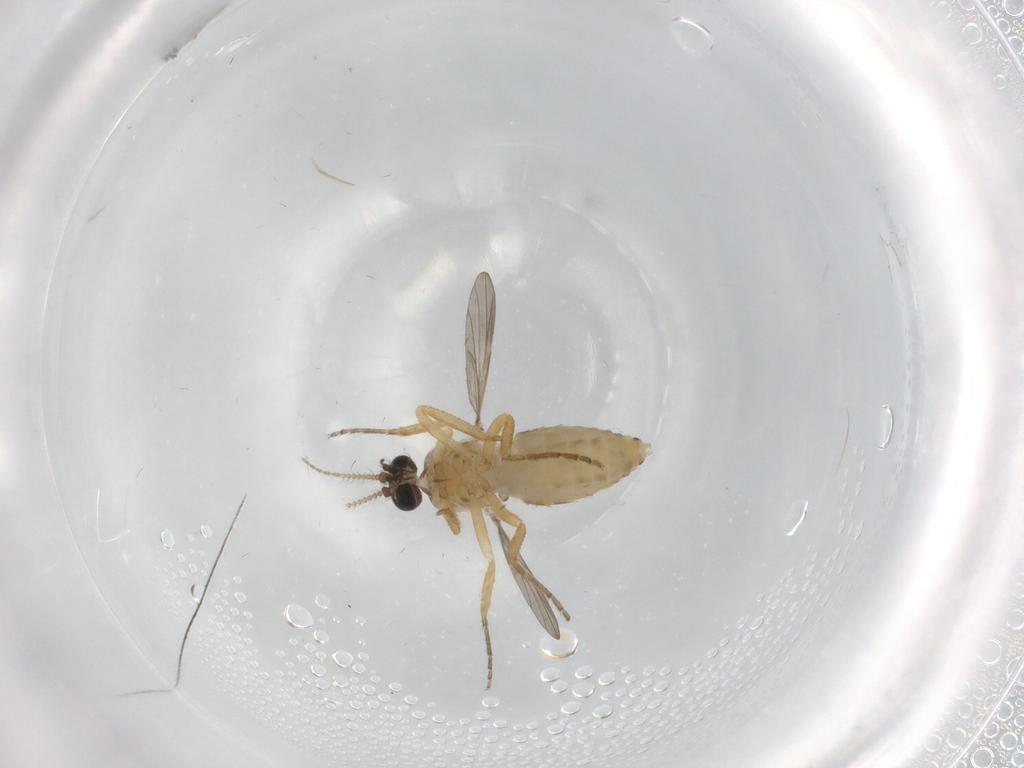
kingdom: Animalia
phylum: Arthropoda
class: Insecta
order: Diptera
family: Ceratopogonidae
